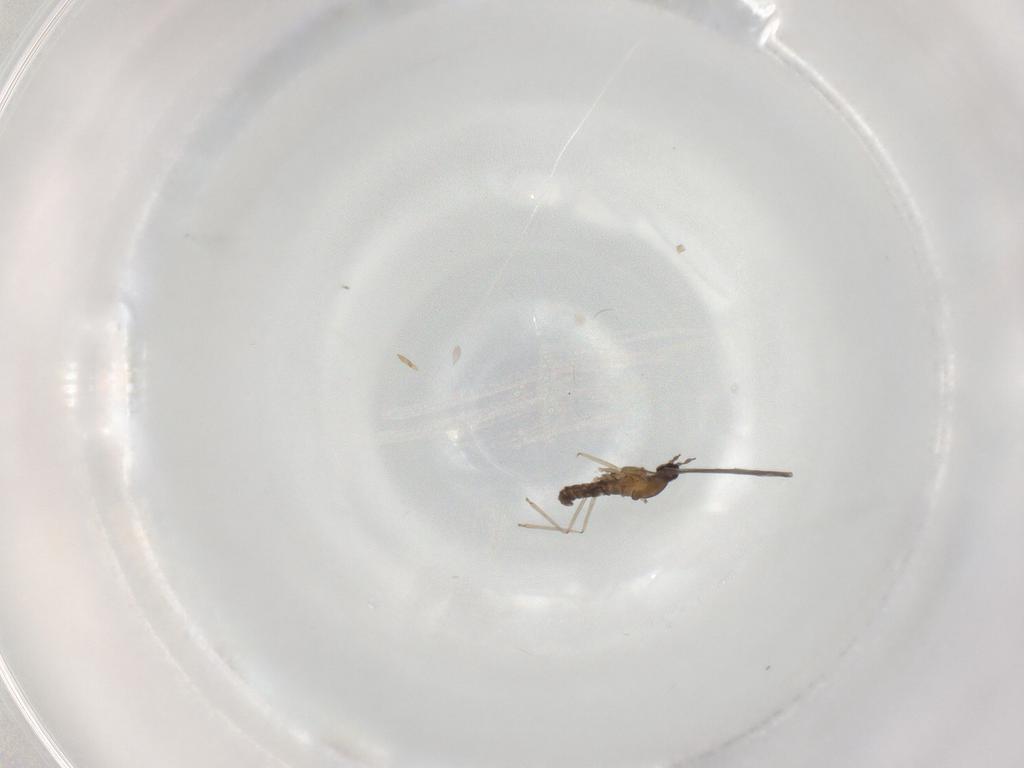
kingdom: Animalia
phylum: Arthropoda
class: Insecta
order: Diptera
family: Cecidomyiidae
